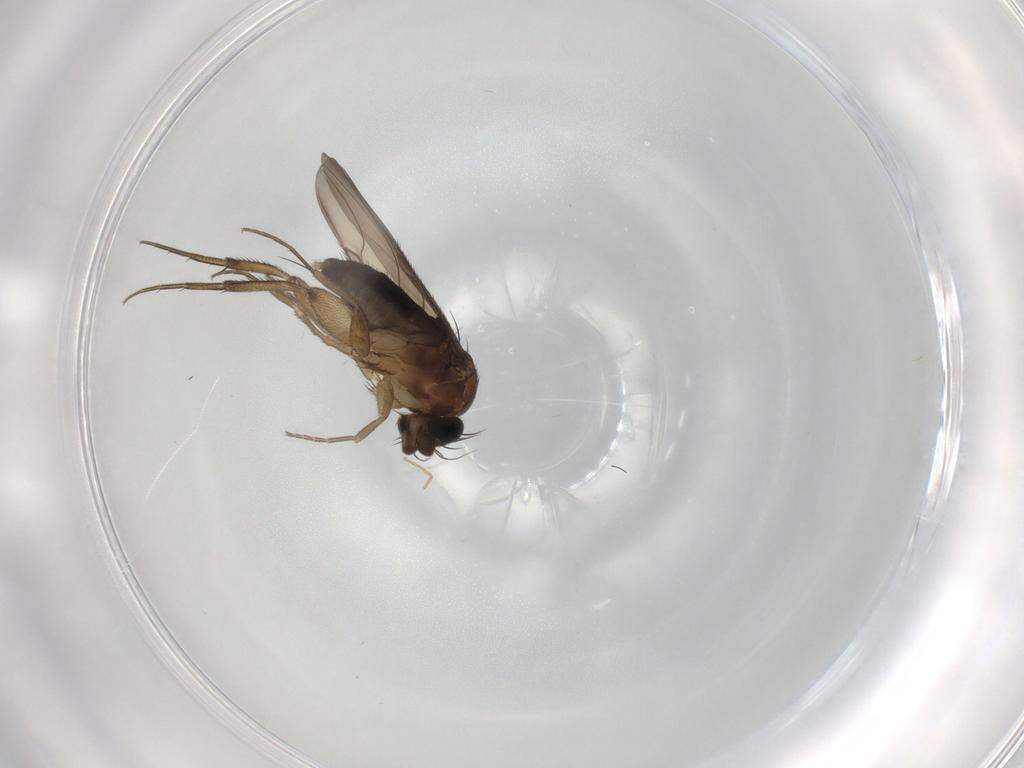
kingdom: Animalia
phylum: Arthropoda
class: Insecta
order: Diptera
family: Phoridae
